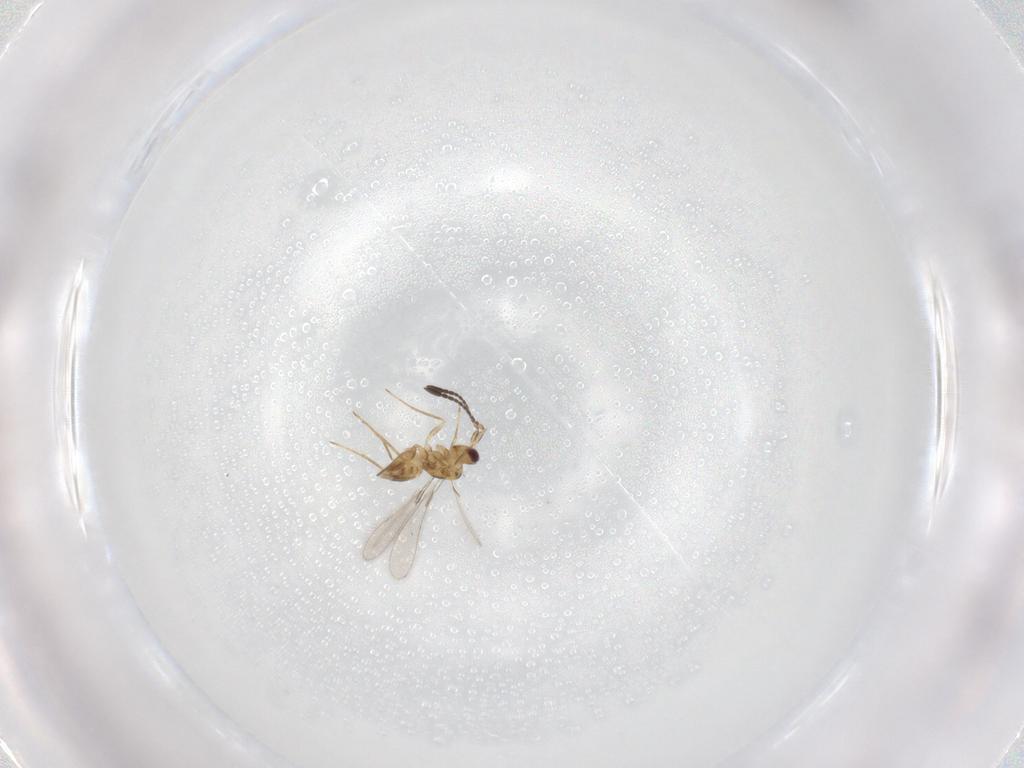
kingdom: Animalia
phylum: Arthropoda
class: Insecta
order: Hymenoptera
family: Mymaridae
